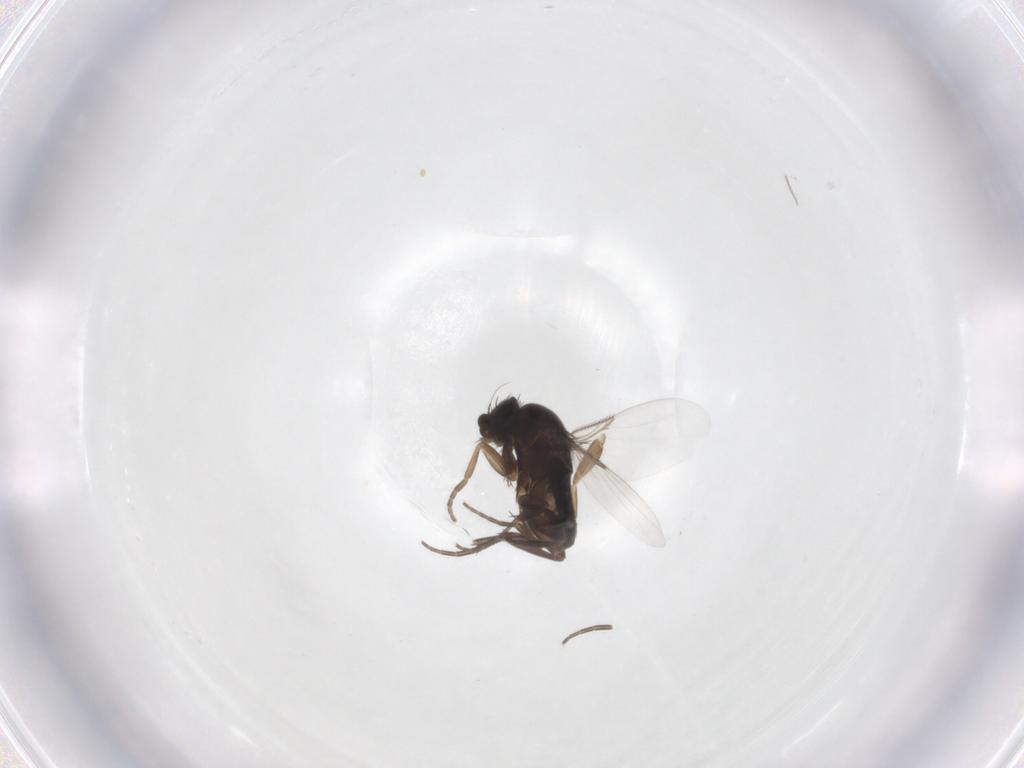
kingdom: Animalia
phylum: Arthropoda
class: Insecta
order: Diptera
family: Phoridae
